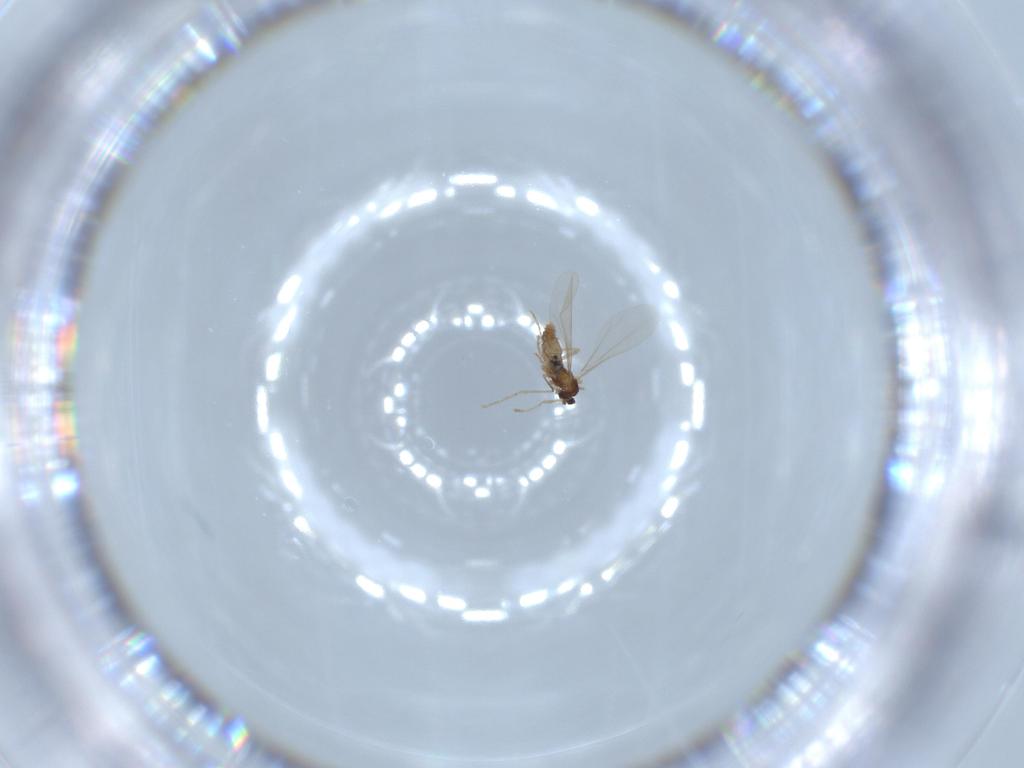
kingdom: Animalia
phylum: Arthropoda
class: Insecta
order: Diptera
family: Cecidomyiidae
